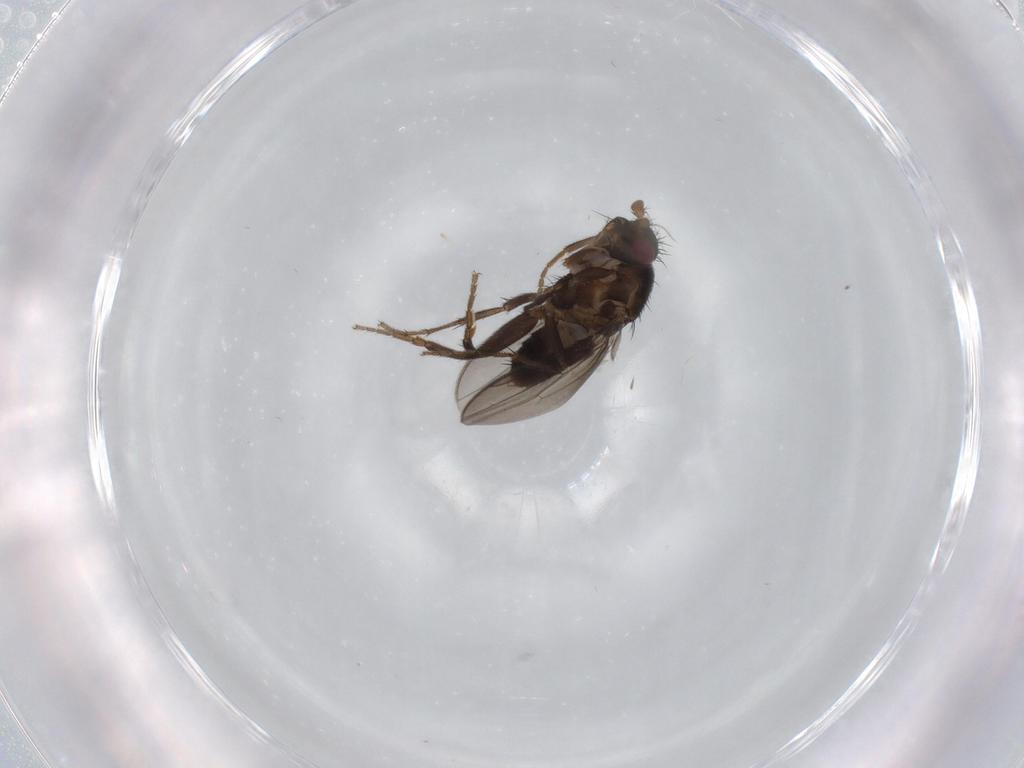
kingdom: Animalia
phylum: Arthropoda
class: Insecta
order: Diptera
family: Sphaeroceridae
